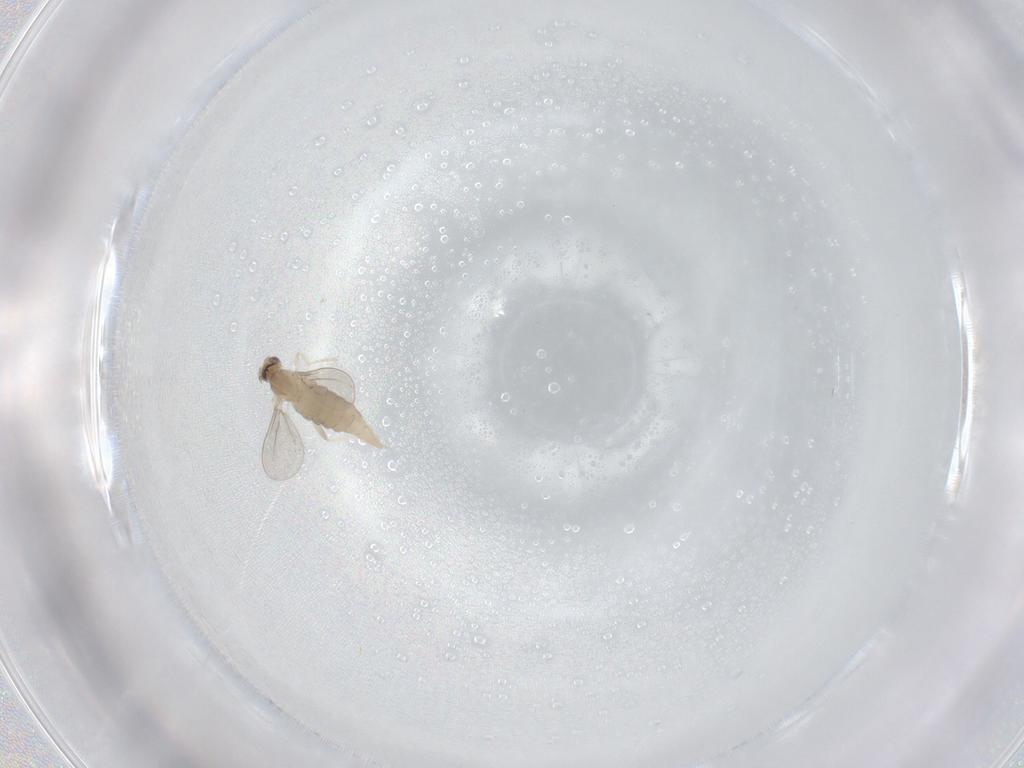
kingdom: Animalia
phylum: Arthropoda
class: Insecta
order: Diptera
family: Cecidomyiidae
